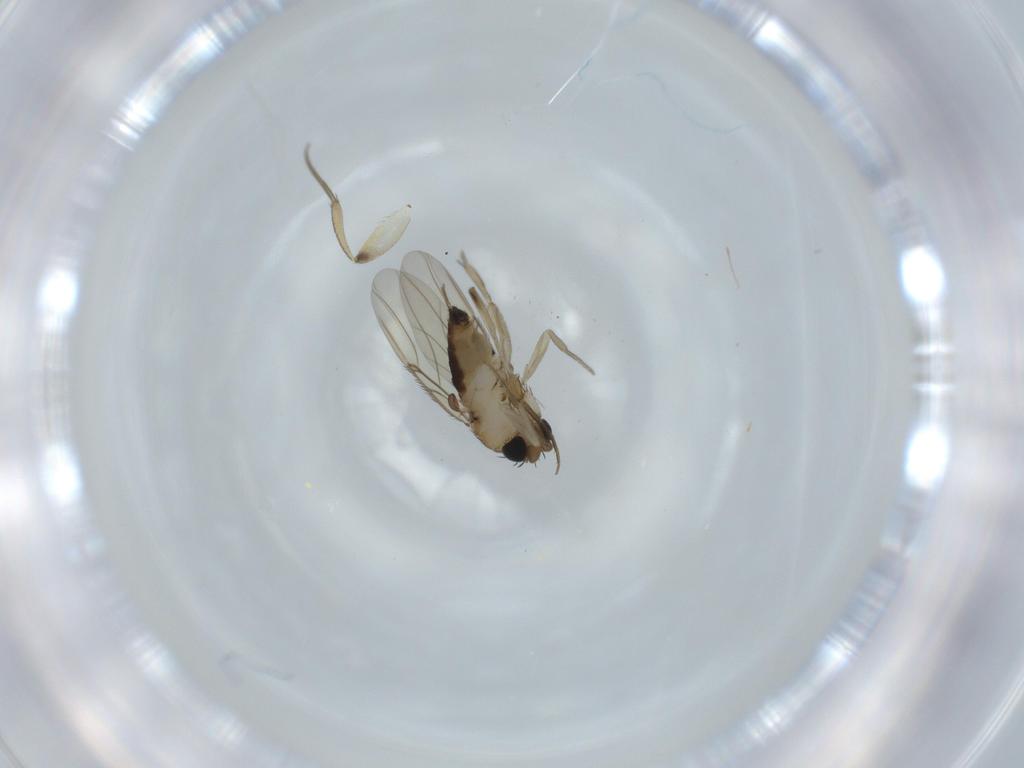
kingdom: Animalia
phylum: Arthropoda
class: Insecta
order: Diptera
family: Phoridae
